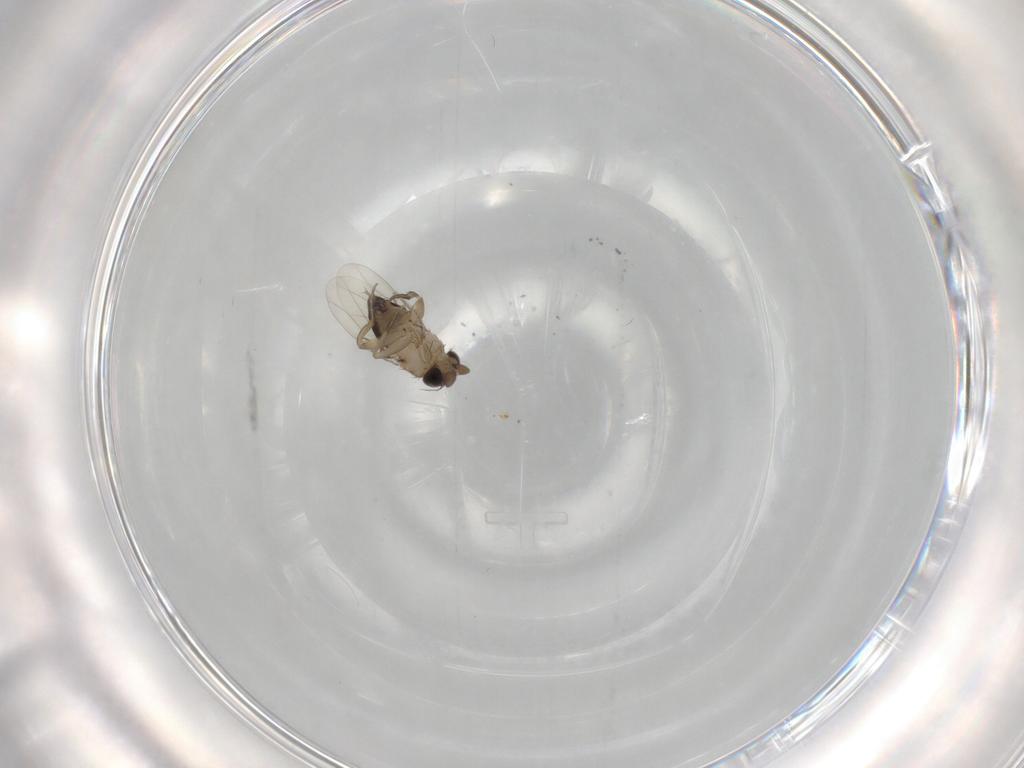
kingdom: Animalia
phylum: Arthropoda
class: Insecta
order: Diptera
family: Phoridae
